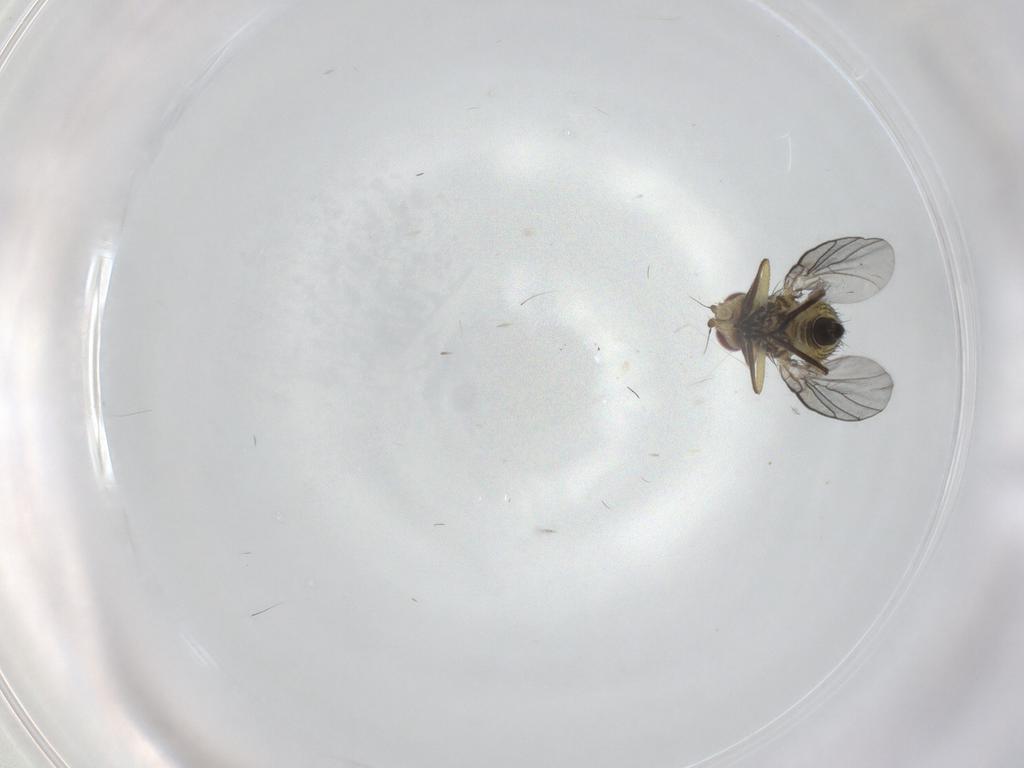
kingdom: Animalia
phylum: Arthropoda
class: Insecta
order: Diptera
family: Agromyzidae
